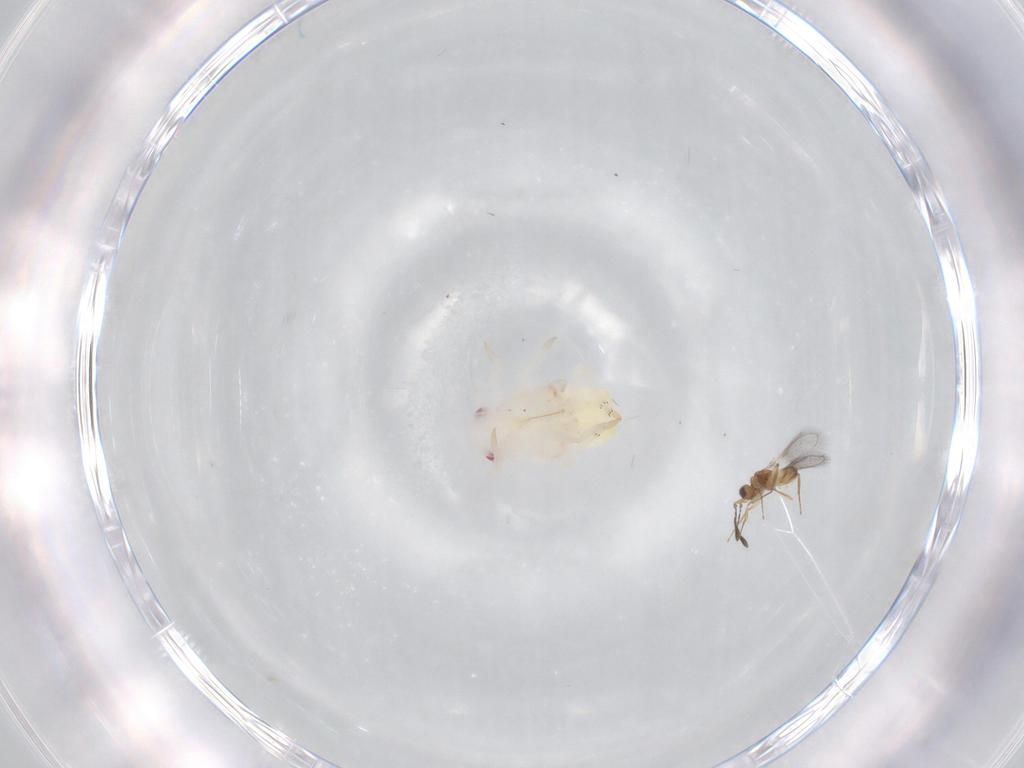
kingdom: Animalia
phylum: Arthropoda
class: Insecta
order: Hemiptera
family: Flatidae
